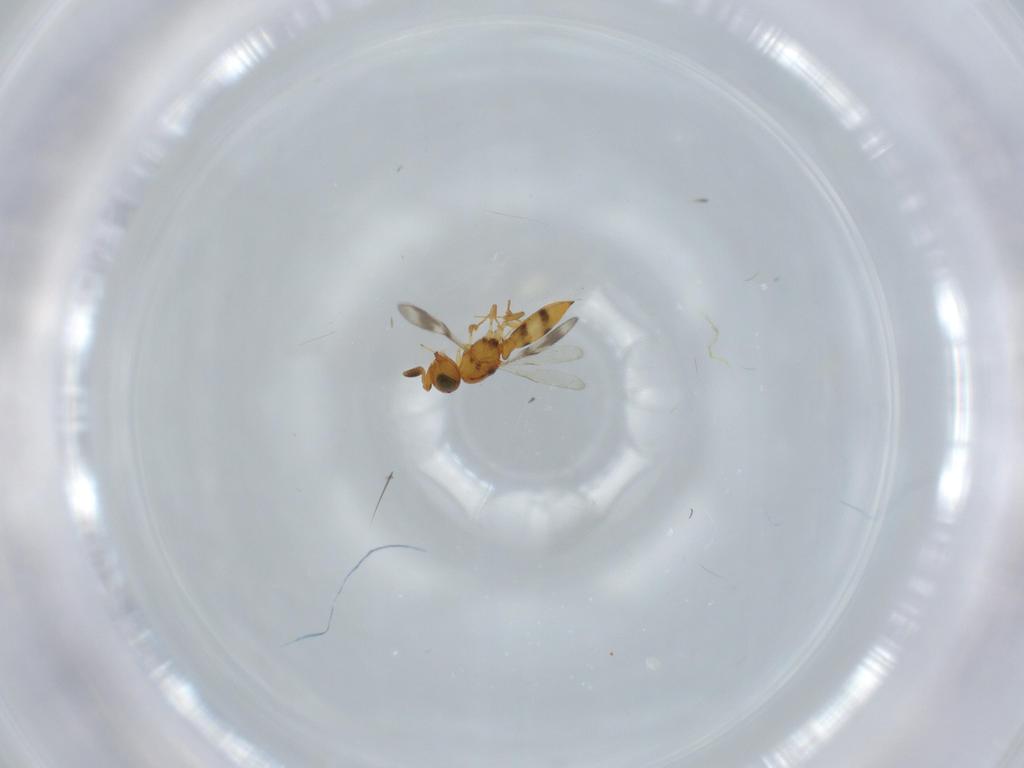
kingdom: Animalia
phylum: Arthropoda
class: Insecta
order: Hymenoptera
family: Scelionidae
